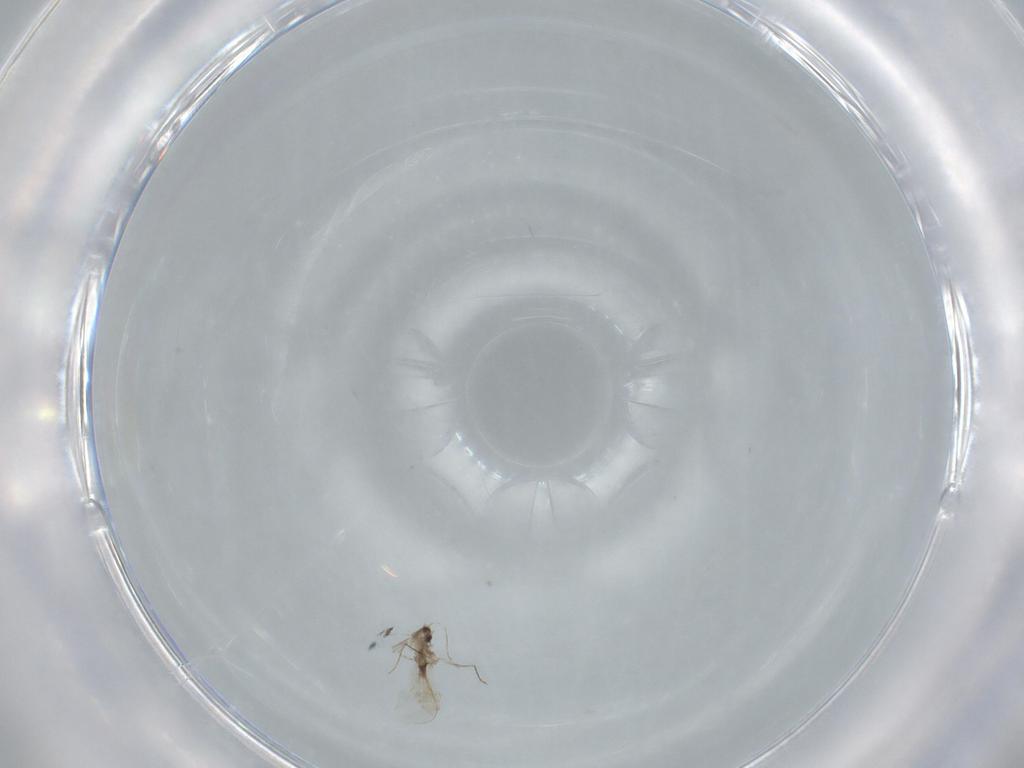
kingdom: Animalia
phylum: Arthropoda
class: Insecta
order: Diptera
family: Cecidomyiidae
